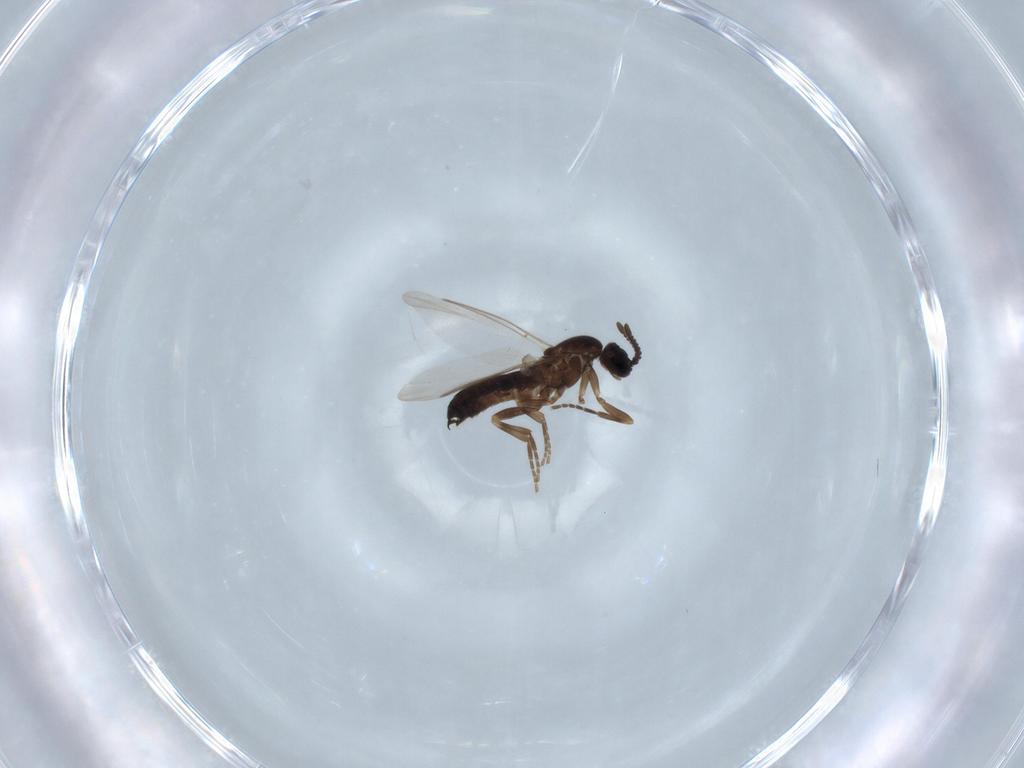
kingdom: Animalia
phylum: Arthropoda
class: Insecta
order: Diptera
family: Scatopsidae
